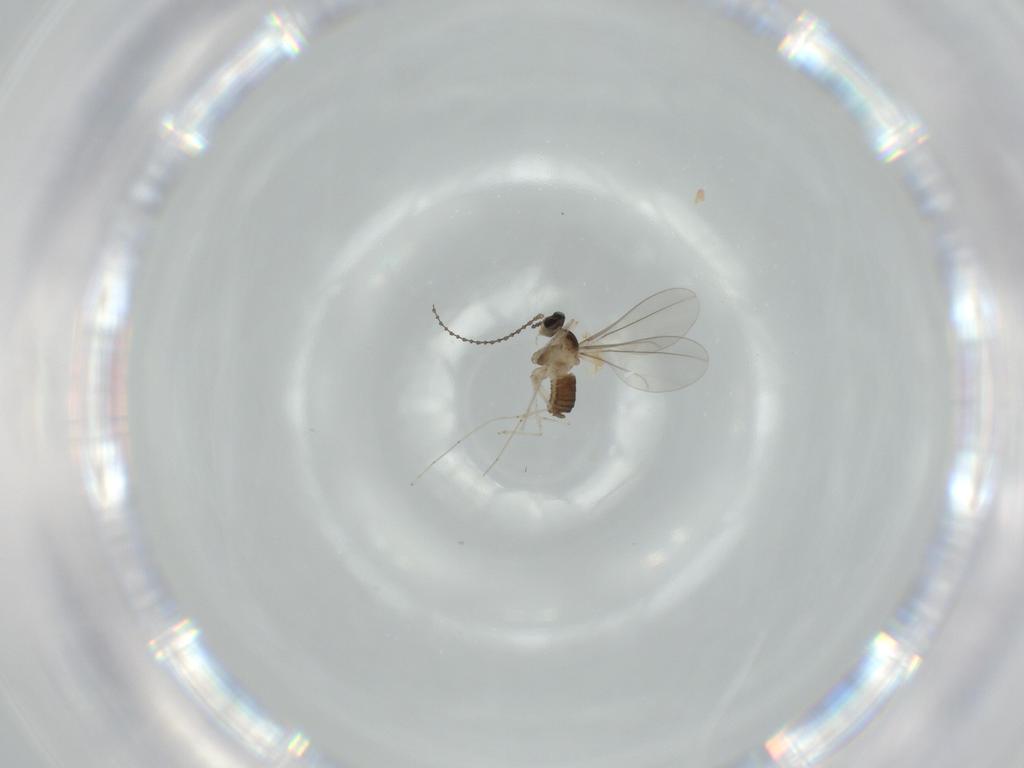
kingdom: Animalia
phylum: Arthropoda
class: Insecta
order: Diptera
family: Cecidomyiidae
